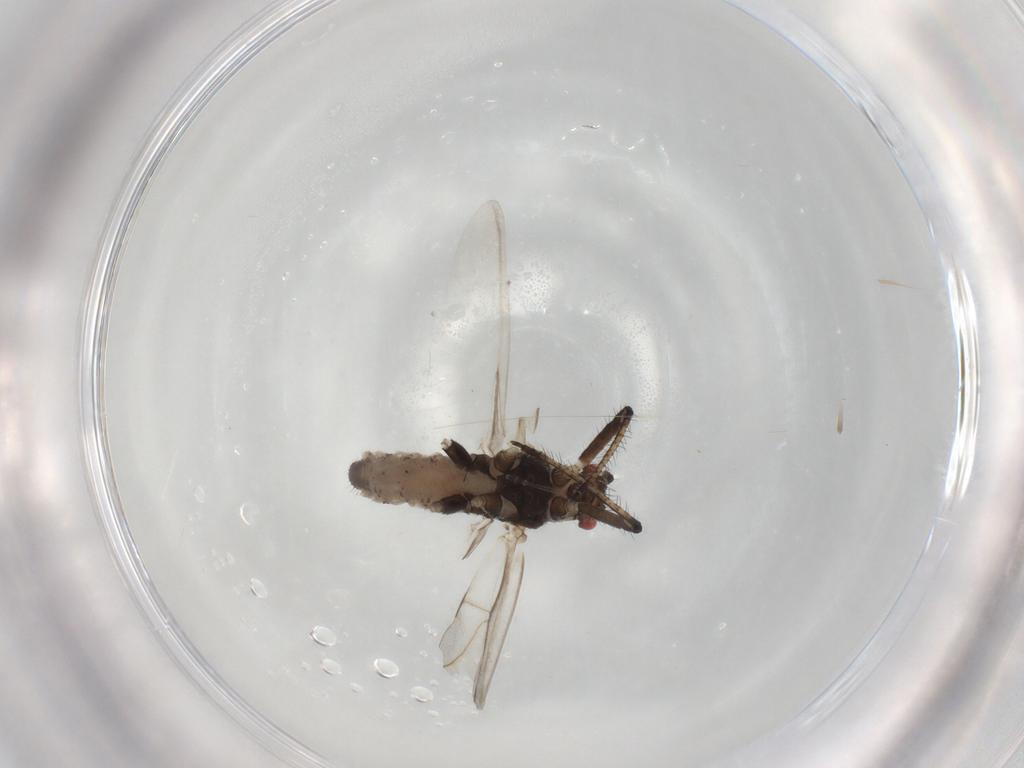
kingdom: Animalia
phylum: Arthropoda
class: Insecta
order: Hemiptera
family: Aphididae
